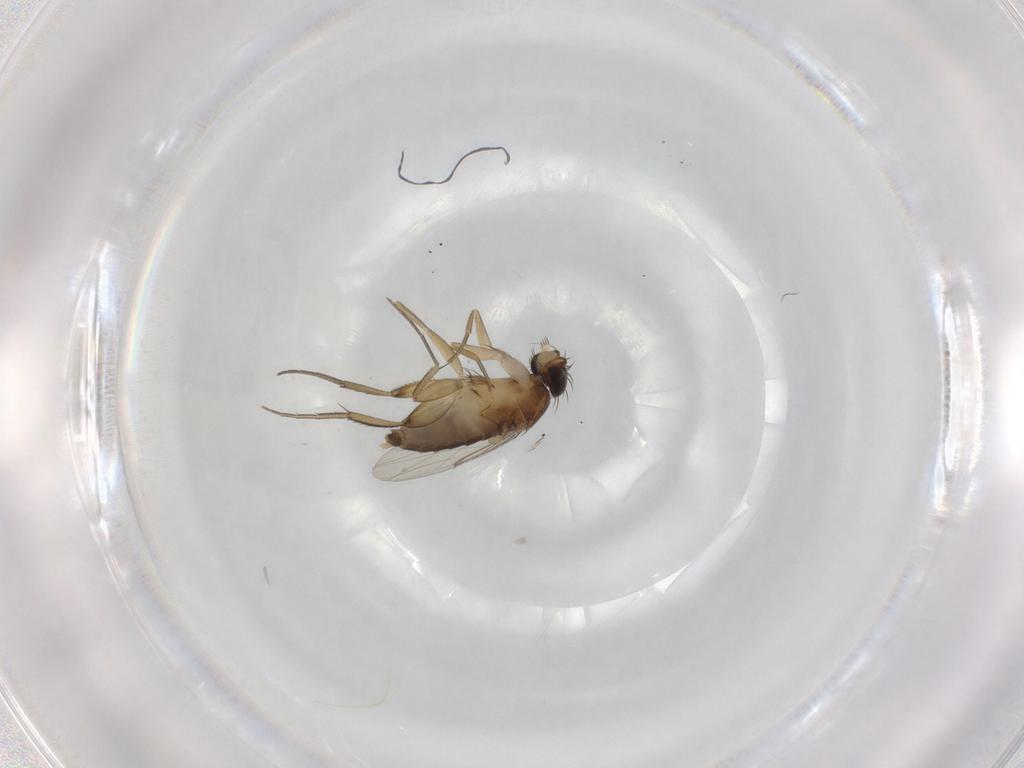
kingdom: Animalia
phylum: Arthropoda
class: Insecta
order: Diptera
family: Phoridae
